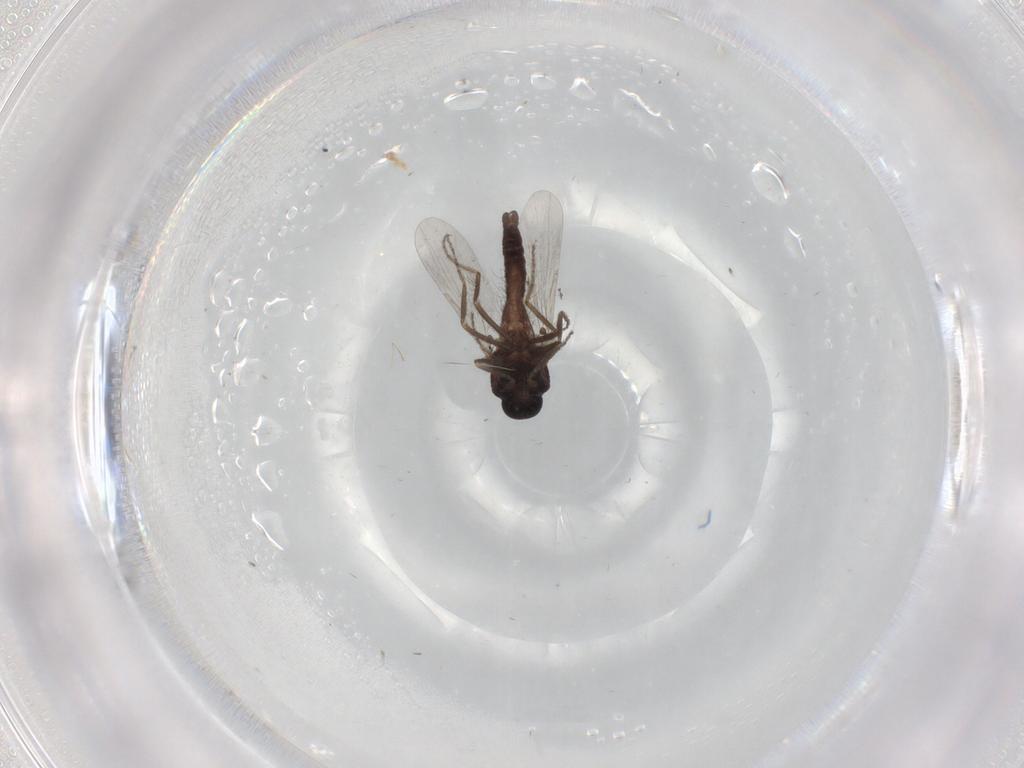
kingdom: Animalia
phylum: Arthropoda
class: Insecta
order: Diptera
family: Ceratopogonidae
